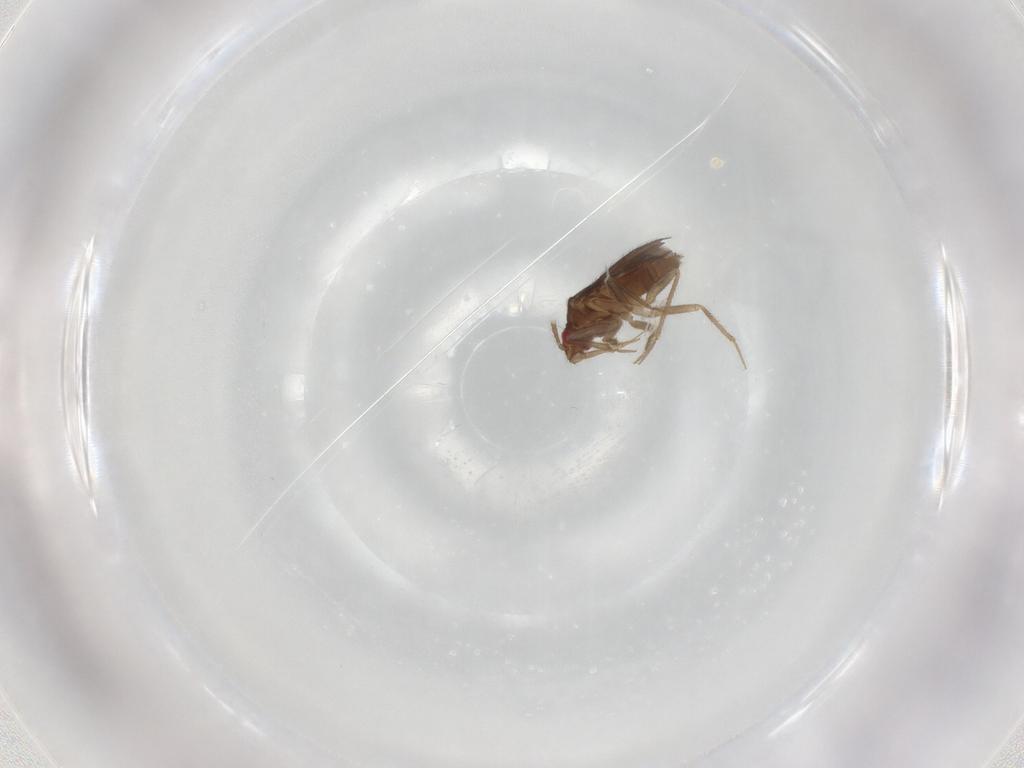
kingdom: Animalia
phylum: Arthropoda
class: Insecta
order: Hemiptera
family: Ceratocombidae
